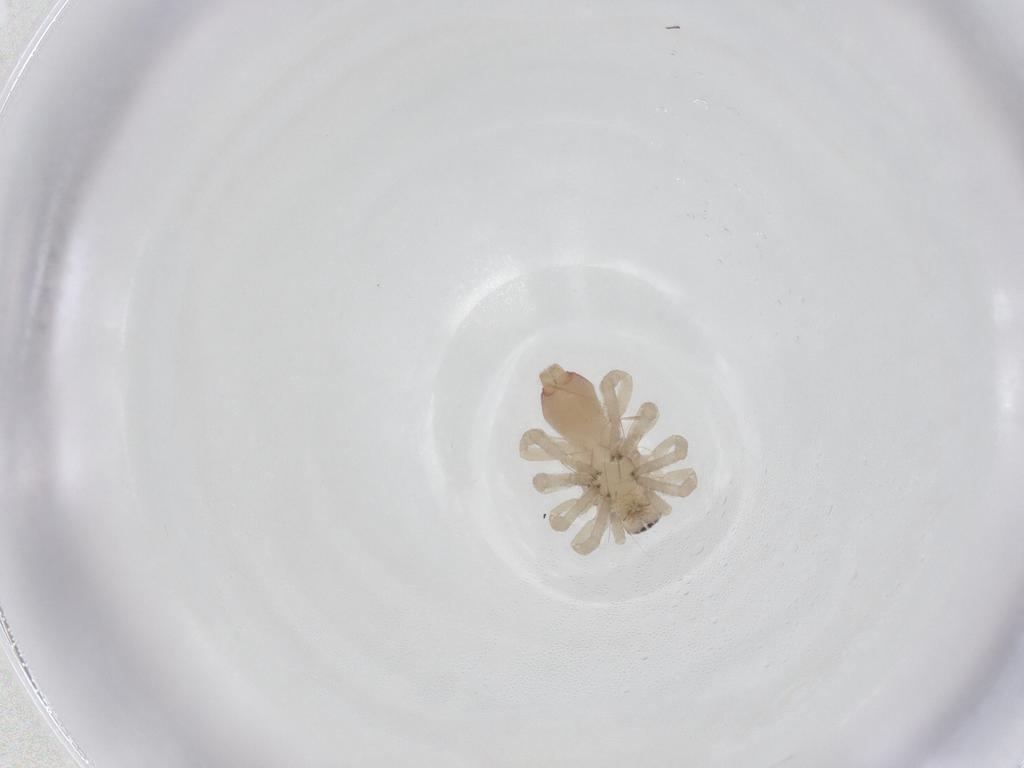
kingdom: Animalia
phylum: Arthropoda
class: Arachnida
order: Araneae
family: Clubionidae
